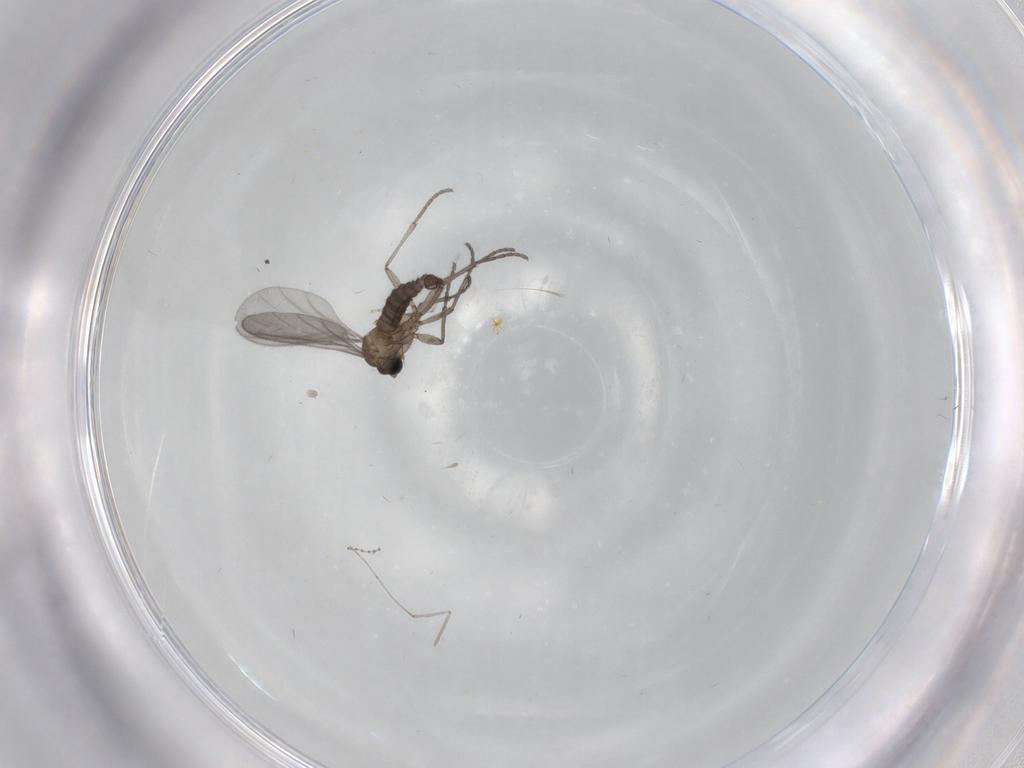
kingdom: Animalia
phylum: Arthropoda
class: Insecta
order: Diptera
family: Sciaridae
